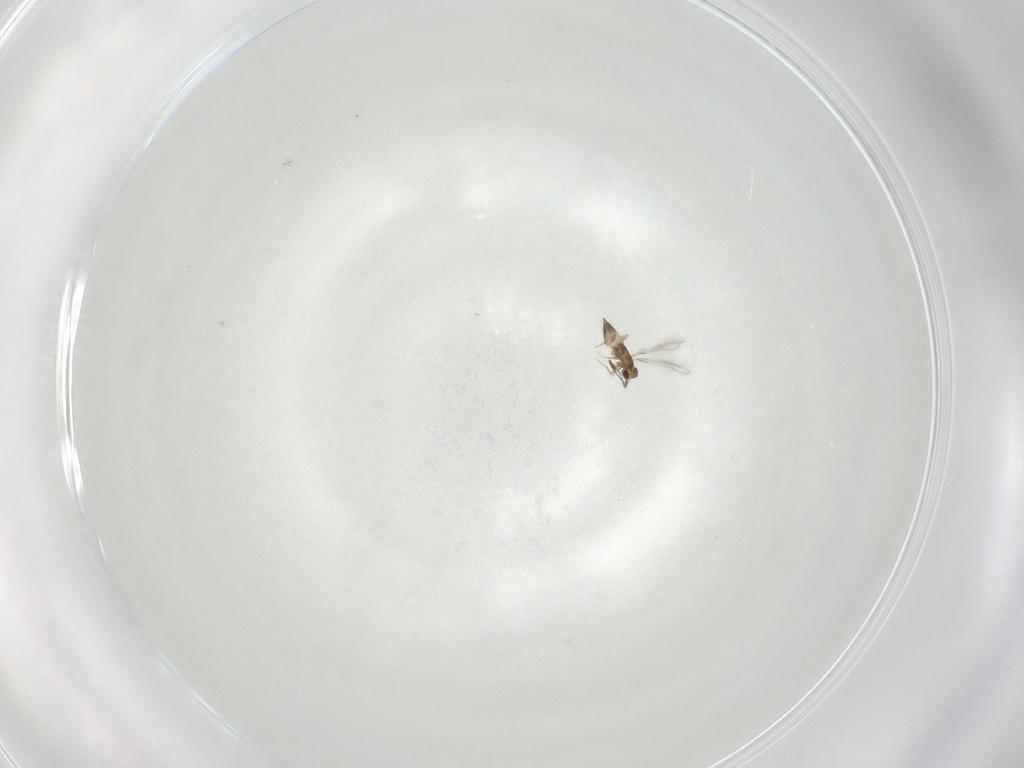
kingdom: Animalia
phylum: Arthropoda
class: Insecta
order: Hymenoptera
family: Mymaridae
